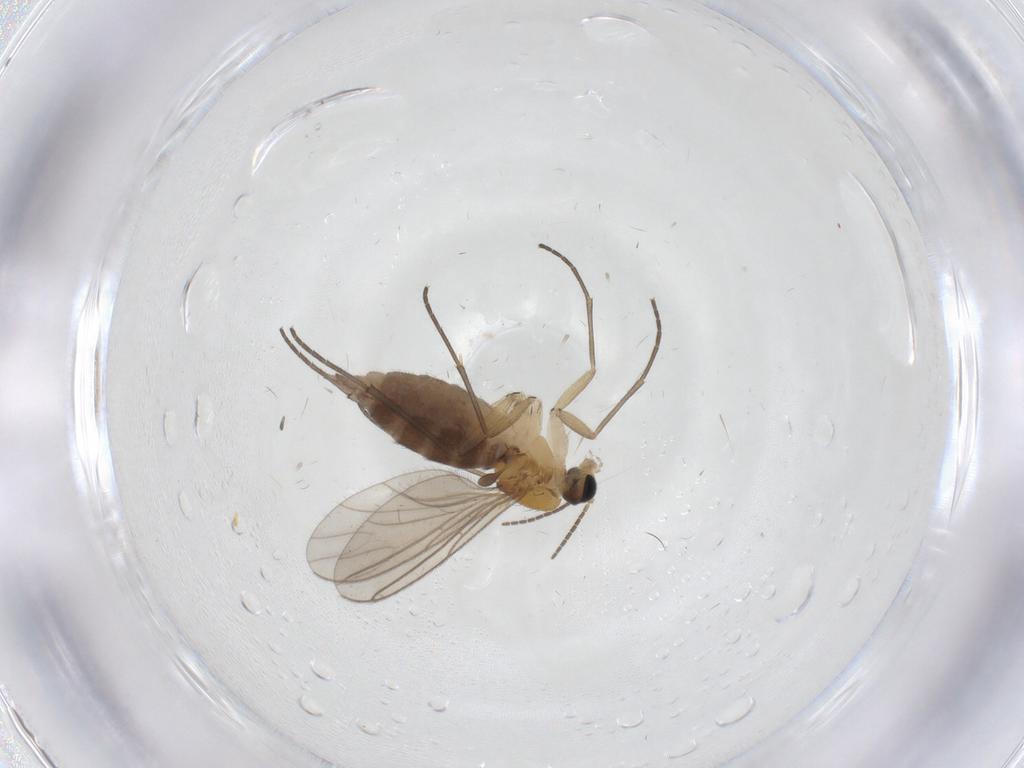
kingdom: Animalia
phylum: Arthropoda
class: Insecta
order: Diptera
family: Sciaridae
